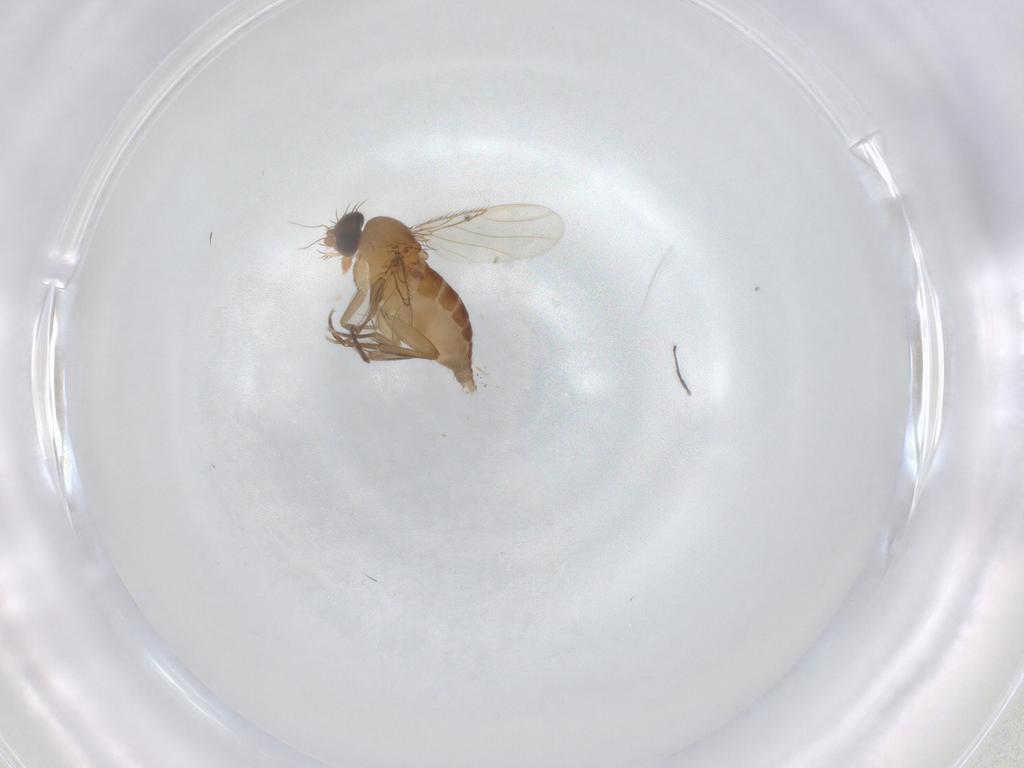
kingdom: Animalia
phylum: Arthropoda
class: Insecta
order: Diptera
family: Phoridae
